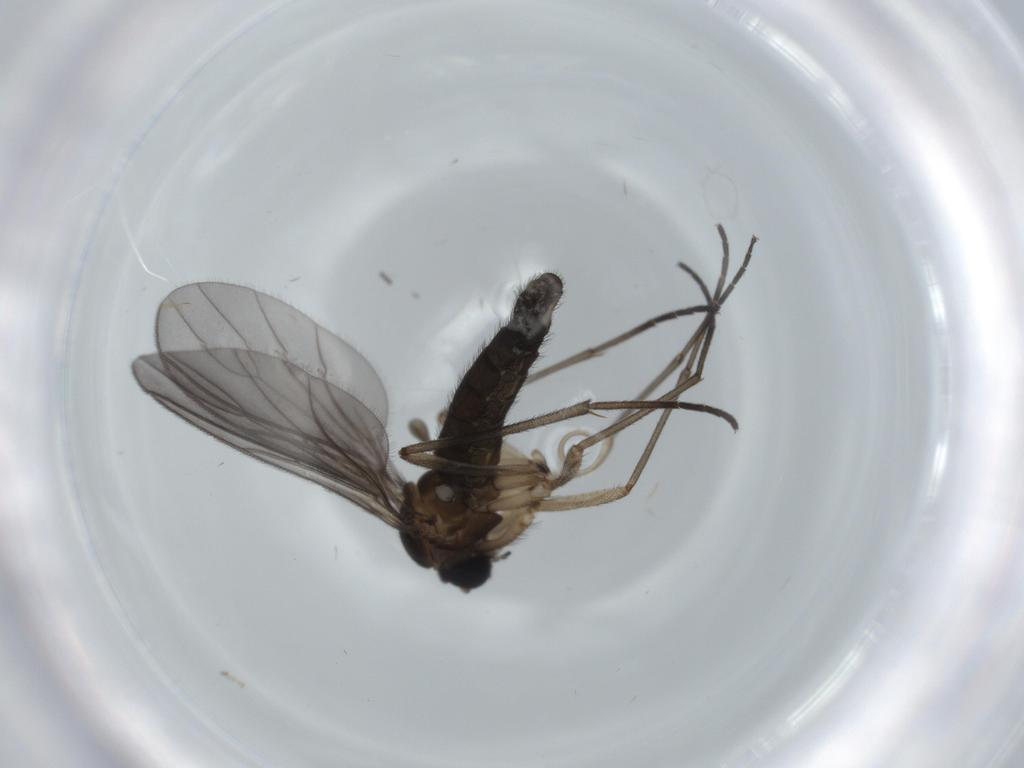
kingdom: Animalia
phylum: Arthropoda
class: Insecta
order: Diptera
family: Sciaridae
